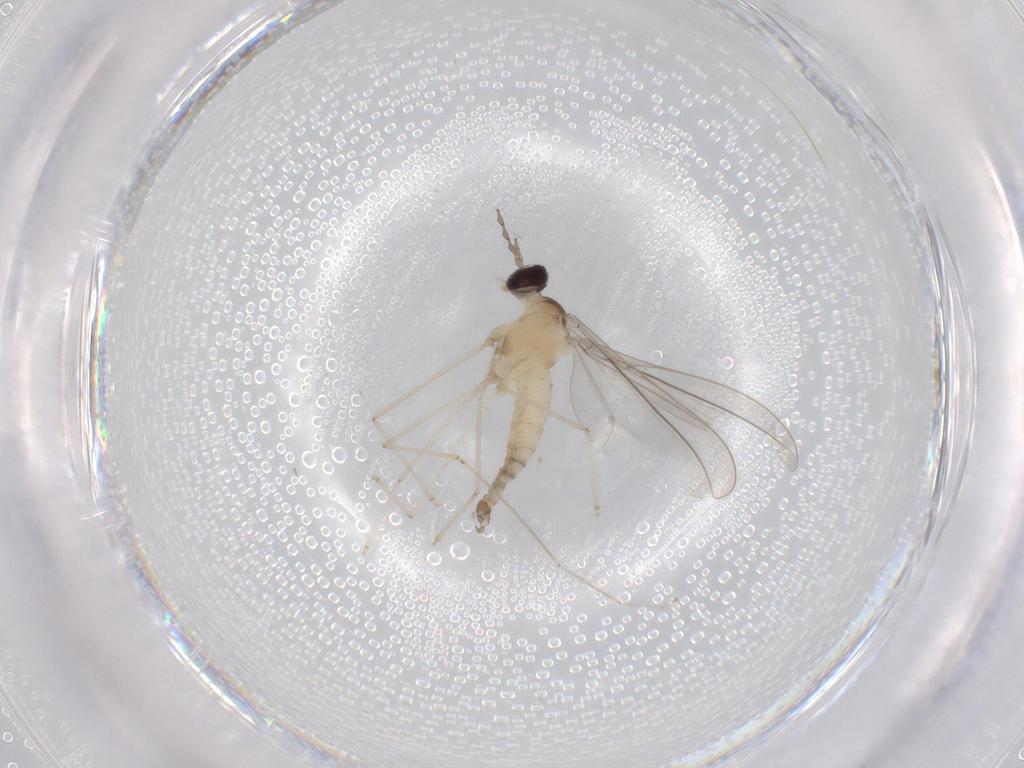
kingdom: Animalia
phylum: Arthropoda
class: Insecta
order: Diptera
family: Cecidomyiidae
